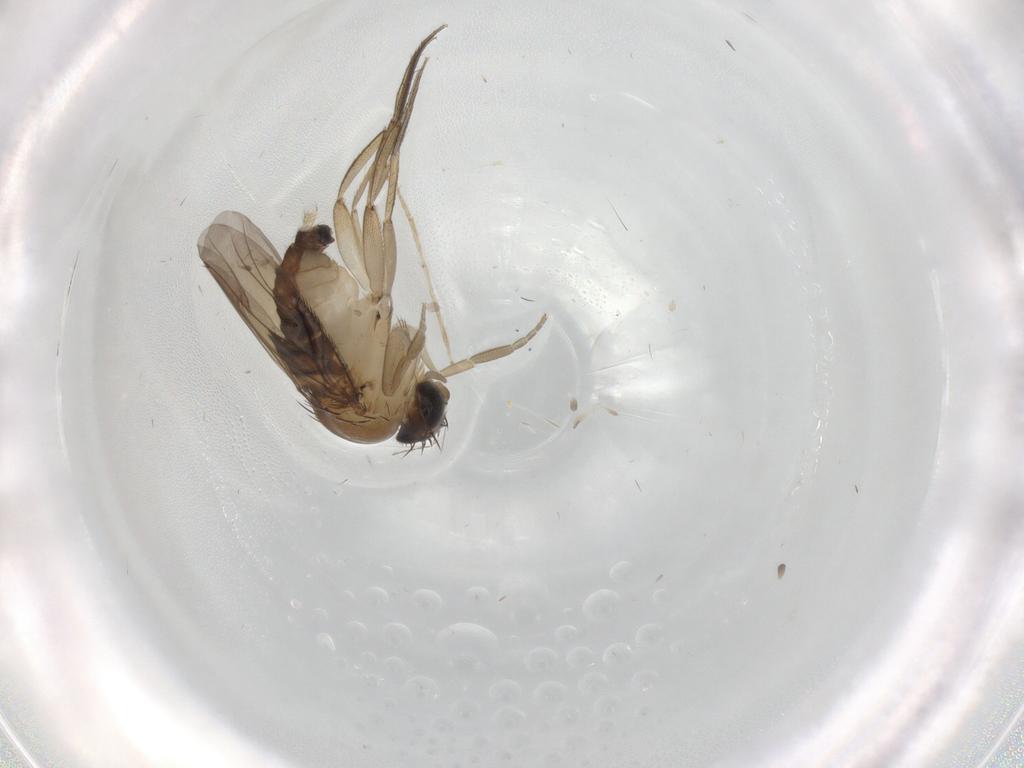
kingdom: Animalia
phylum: Arthropoda
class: Insecta
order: Diptera
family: Phoridae
